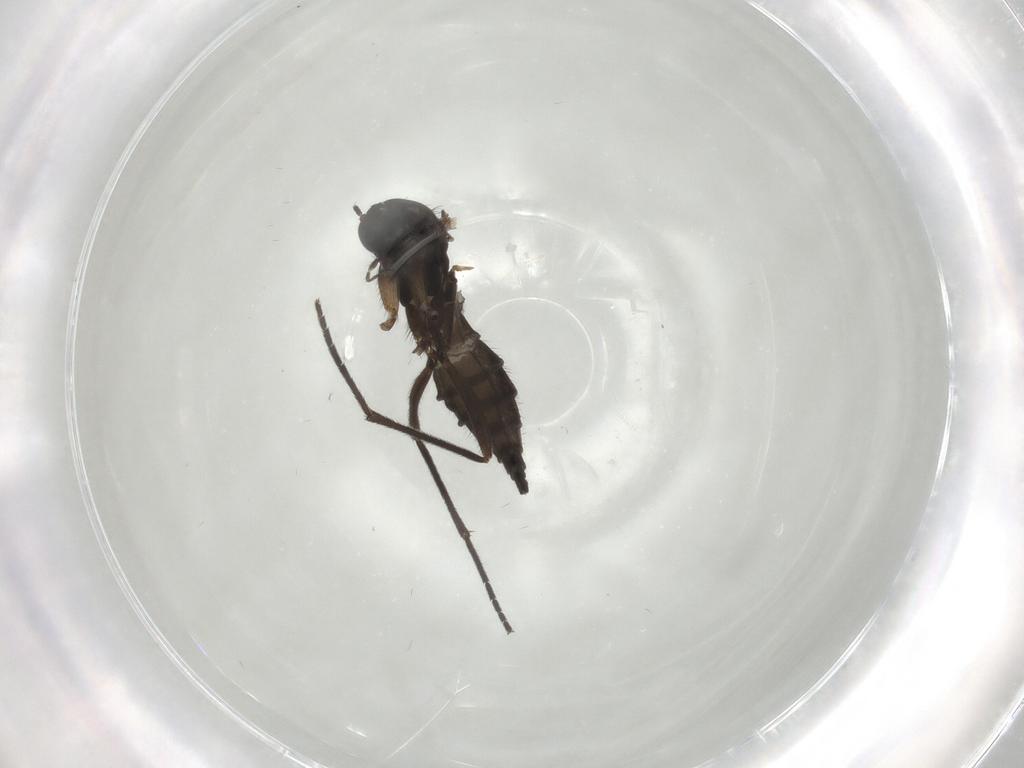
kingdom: Animalia
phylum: Arthropoda
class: Insecta
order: Diptera
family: Sciaridae
